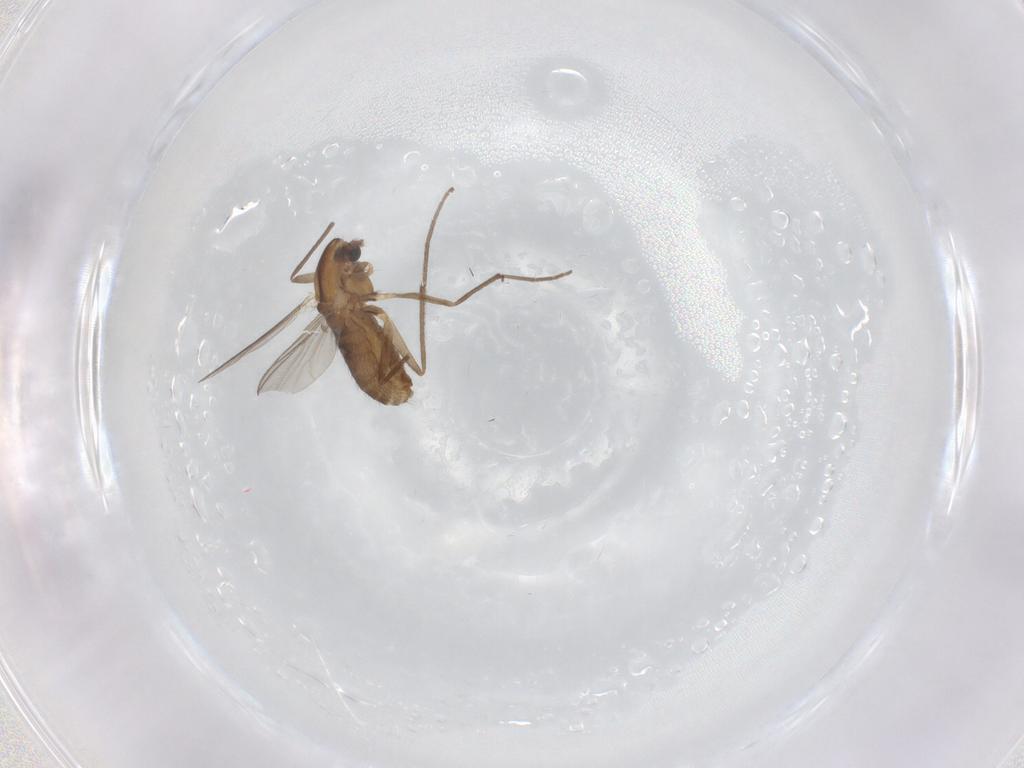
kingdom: Animalia
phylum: Arthropoda
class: Insecta
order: Diptera
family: Chironomidae
